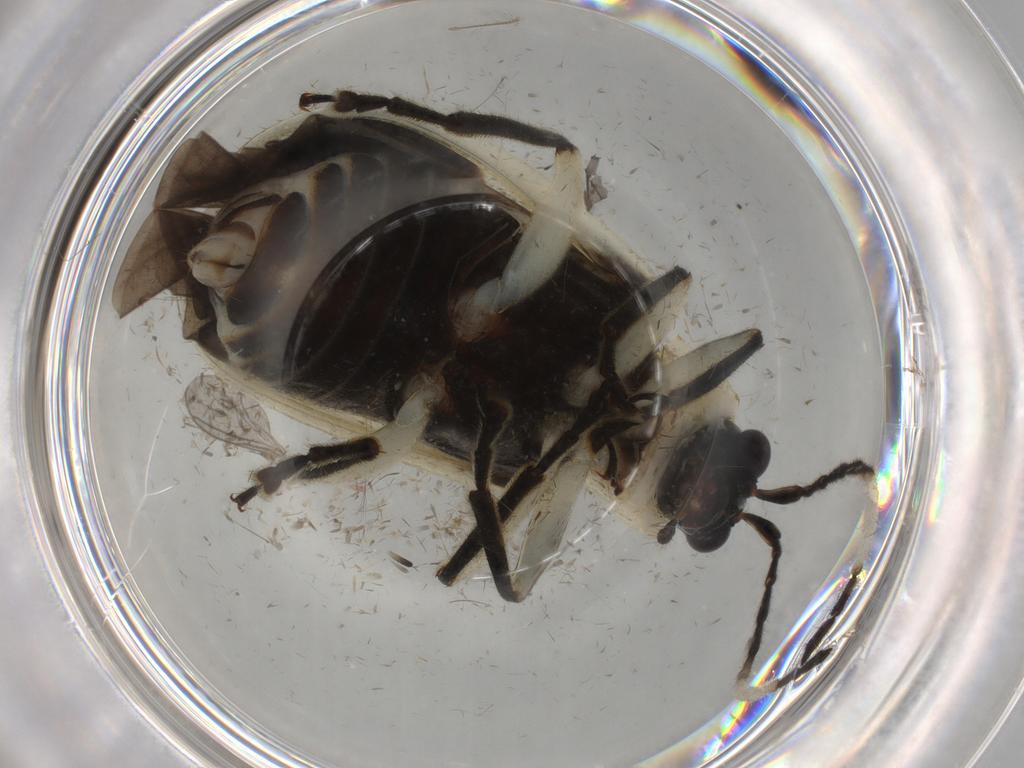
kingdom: Animalia
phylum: Arthropoda
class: Insecta
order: Coleoptera
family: Chrysomelidae
